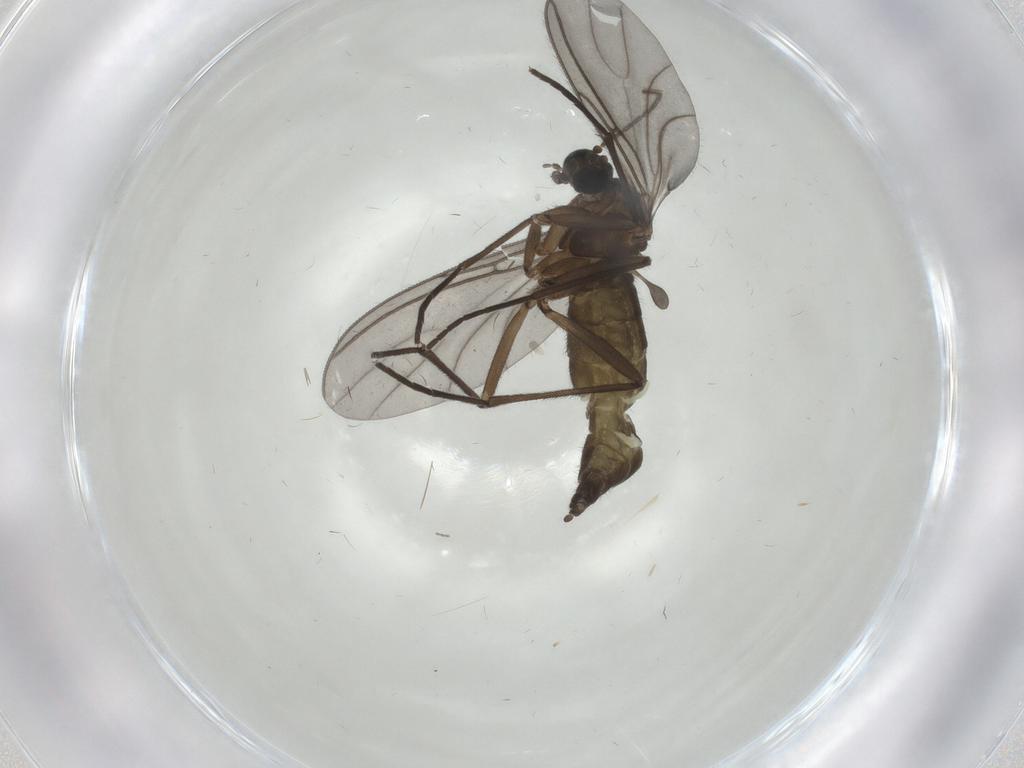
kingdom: Animalia
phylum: Arthropoda
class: Insecta
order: Diptera
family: Sciaridae
